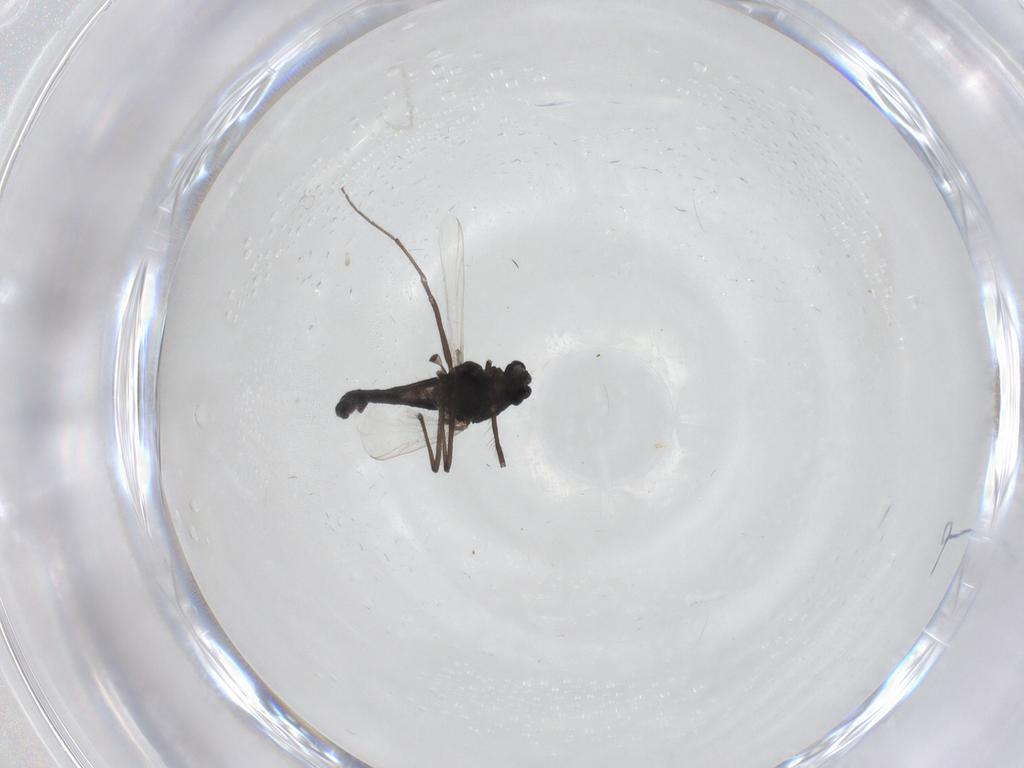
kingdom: Animalia
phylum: Arthropoda
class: Insecta
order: Diptera
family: Chironomidae
